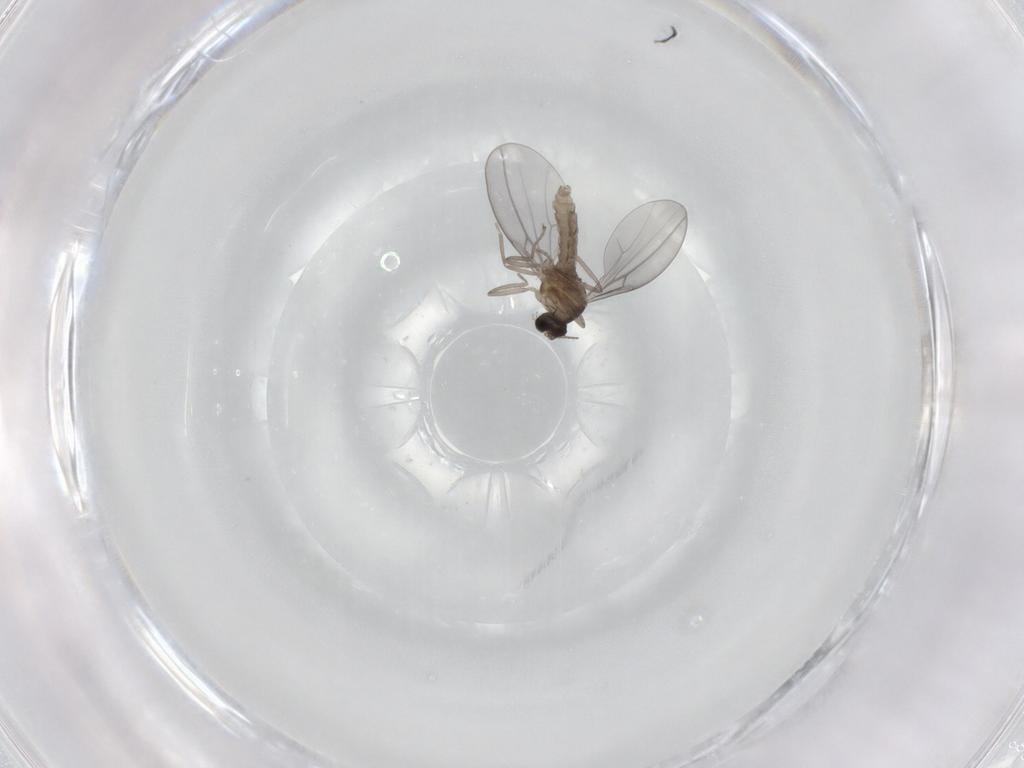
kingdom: Animalia
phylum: Arthropoda
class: Insecta
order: Diptera
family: Cecidomyiidae
